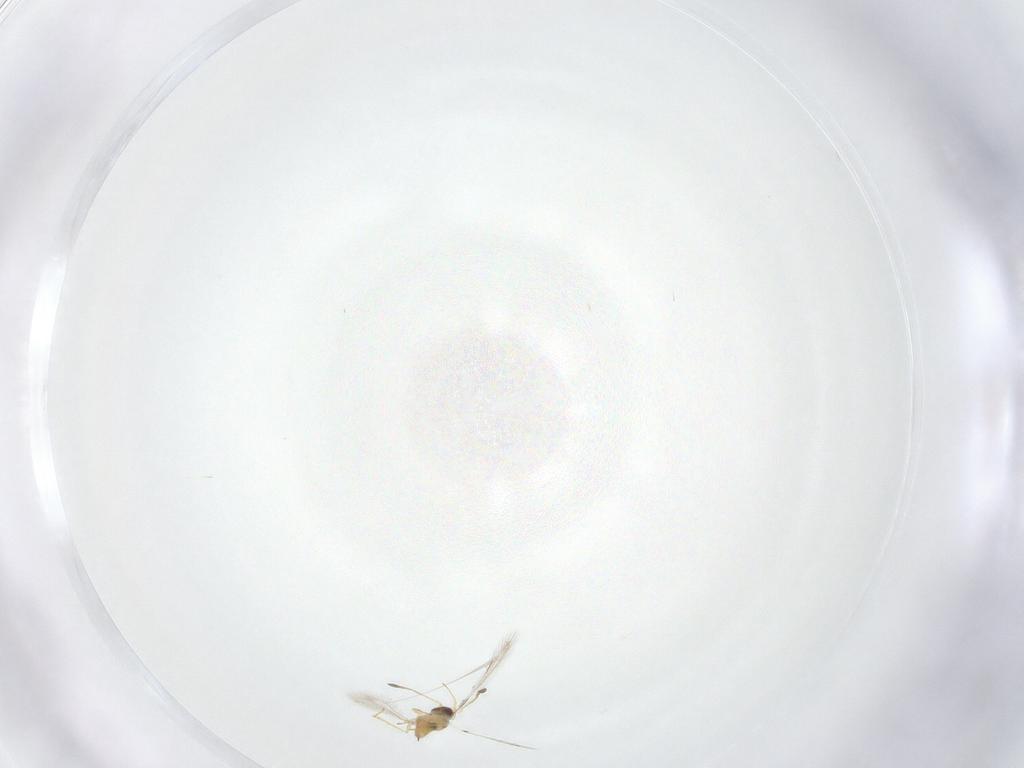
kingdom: Animalia
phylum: Arthropoda
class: Insecta
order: Hymenoptera
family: Mymaridae
